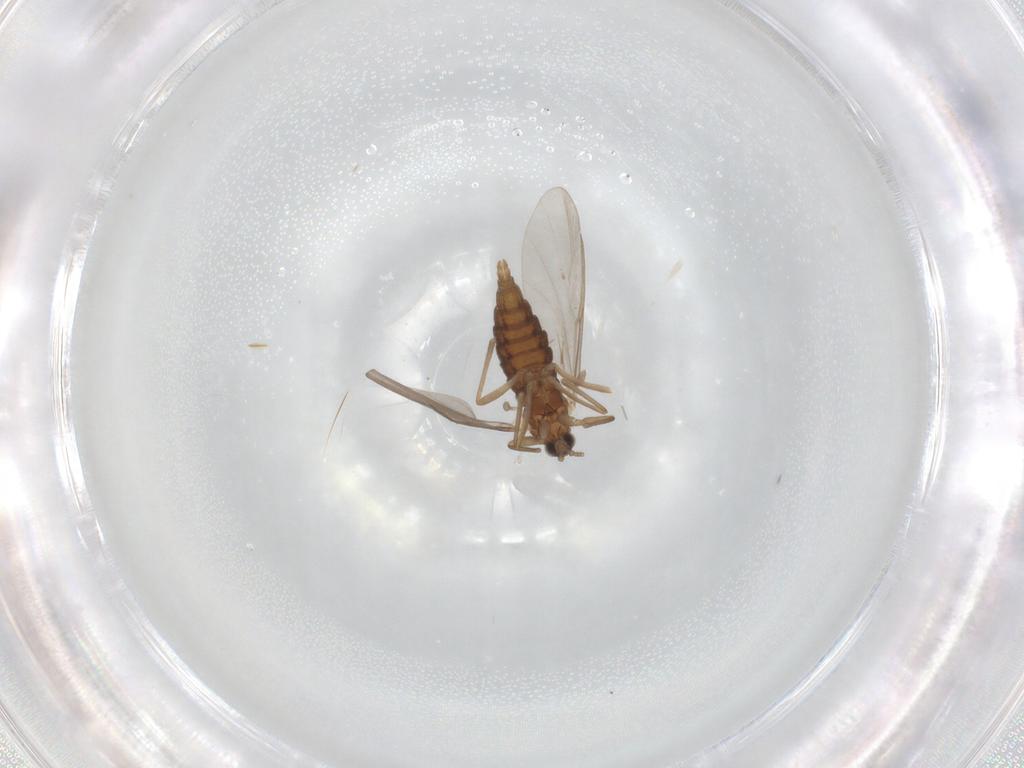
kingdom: Animalia
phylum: Arthropoda
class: Insecta
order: Diptera
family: Cecidomyiidae
